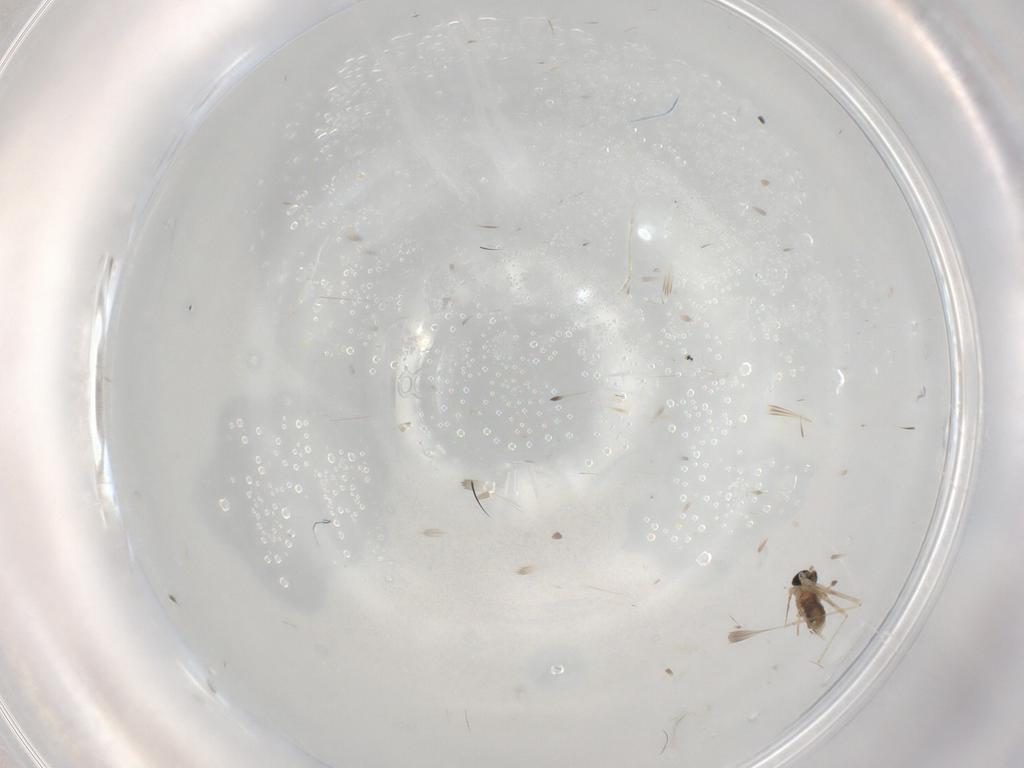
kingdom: Animalia
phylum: Arthropoda
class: Insecta
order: Diptera
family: Cecidomyiidae
